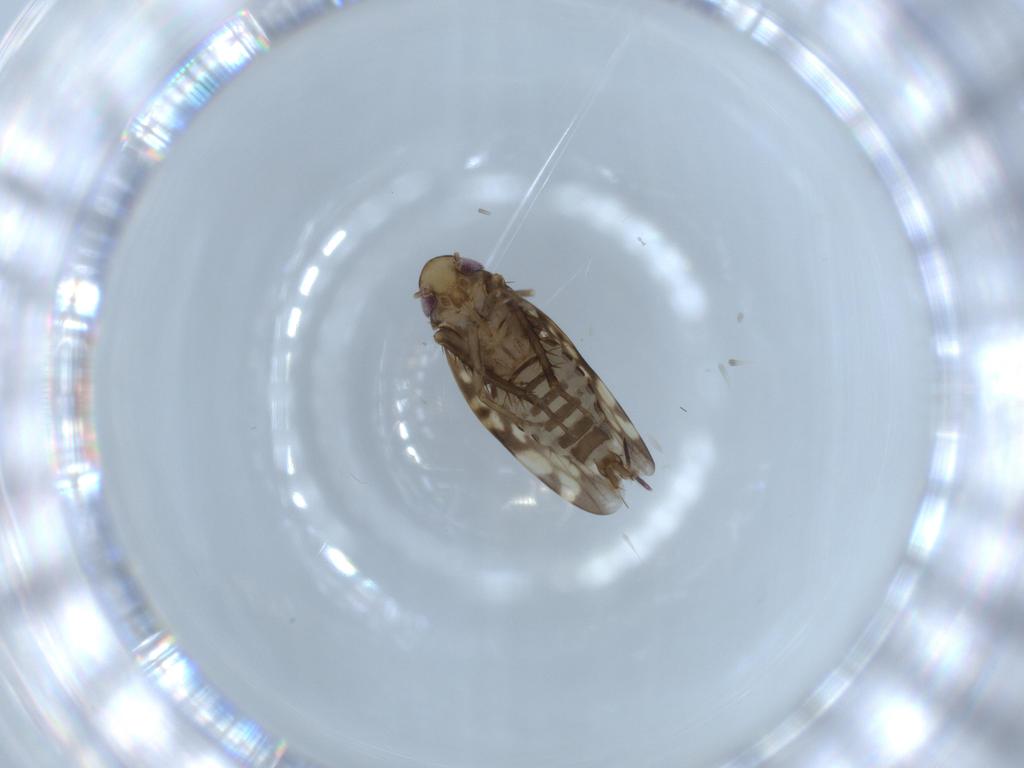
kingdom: Animalia
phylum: Arthropoda
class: Insecta
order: Hemiptera
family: Cicadellidae
